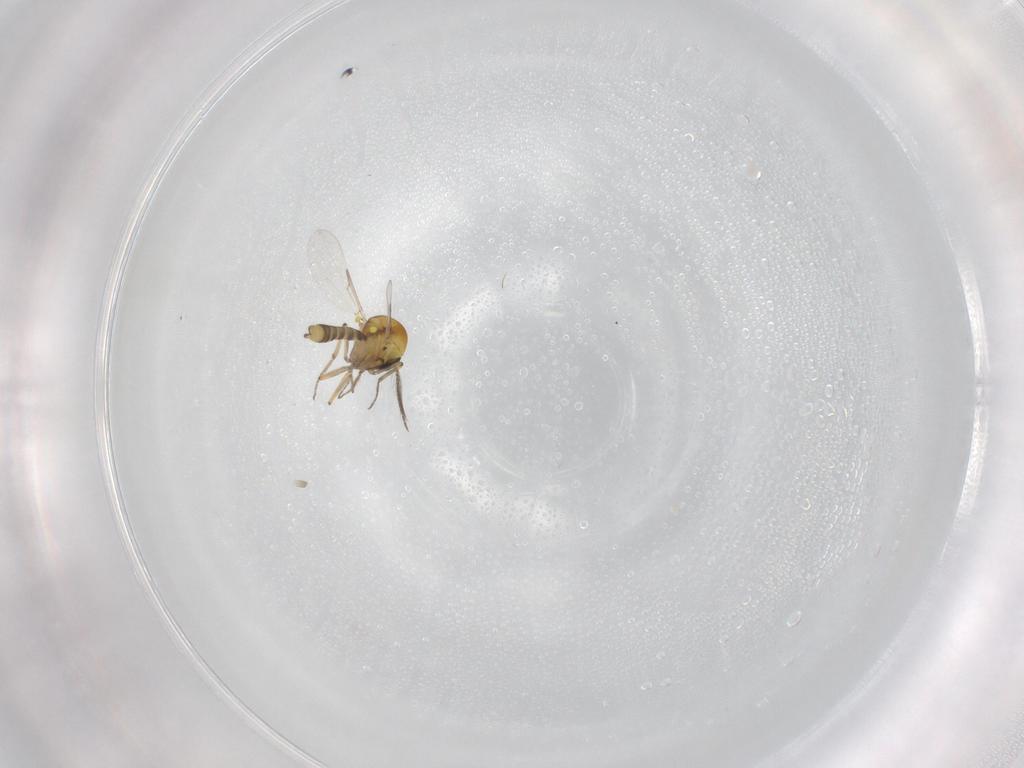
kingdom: Animalia
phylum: Arthropoda
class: Insecta
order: Diptera
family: Ceratopogonidae
